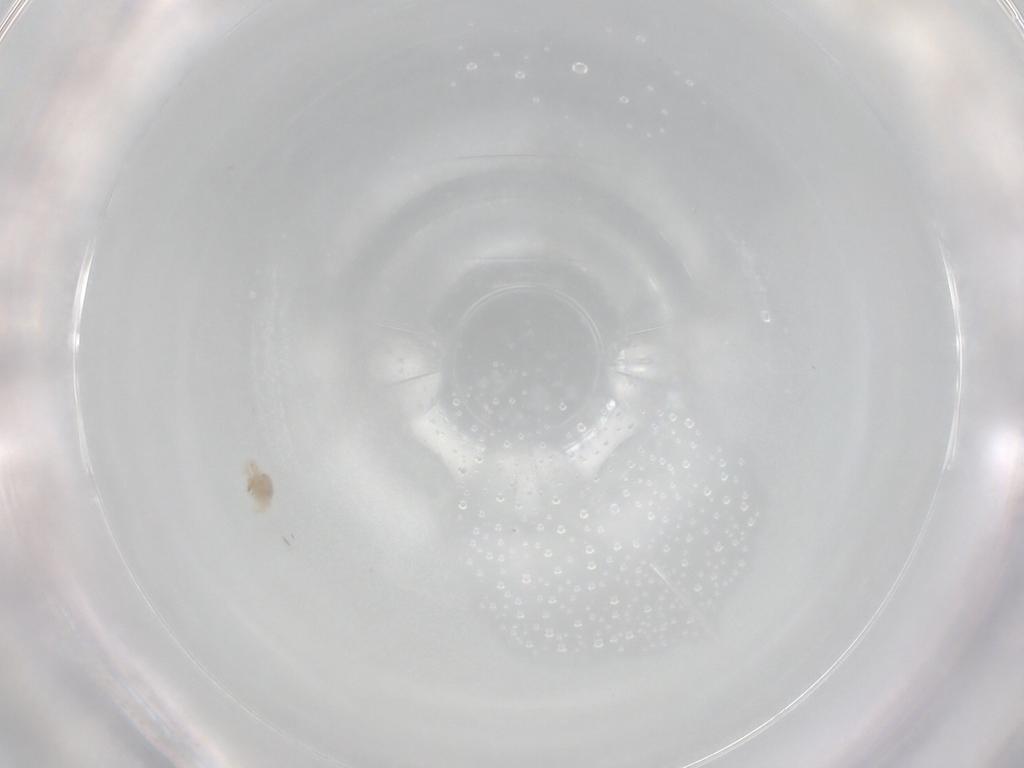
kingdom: Animalia
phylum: Arthropoda
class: Arachnida
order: Trombidiformes
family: Anystidae
